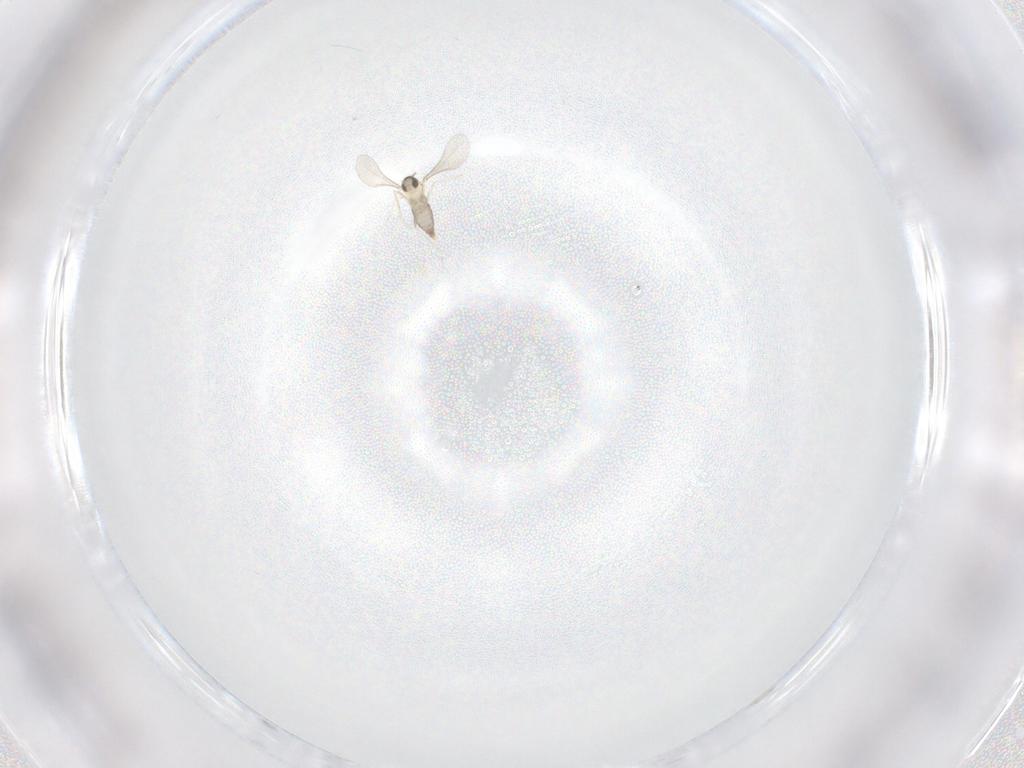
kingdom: Animalia
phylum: Arthropoda
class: Insecta
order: Diptera
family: Sciaridae
